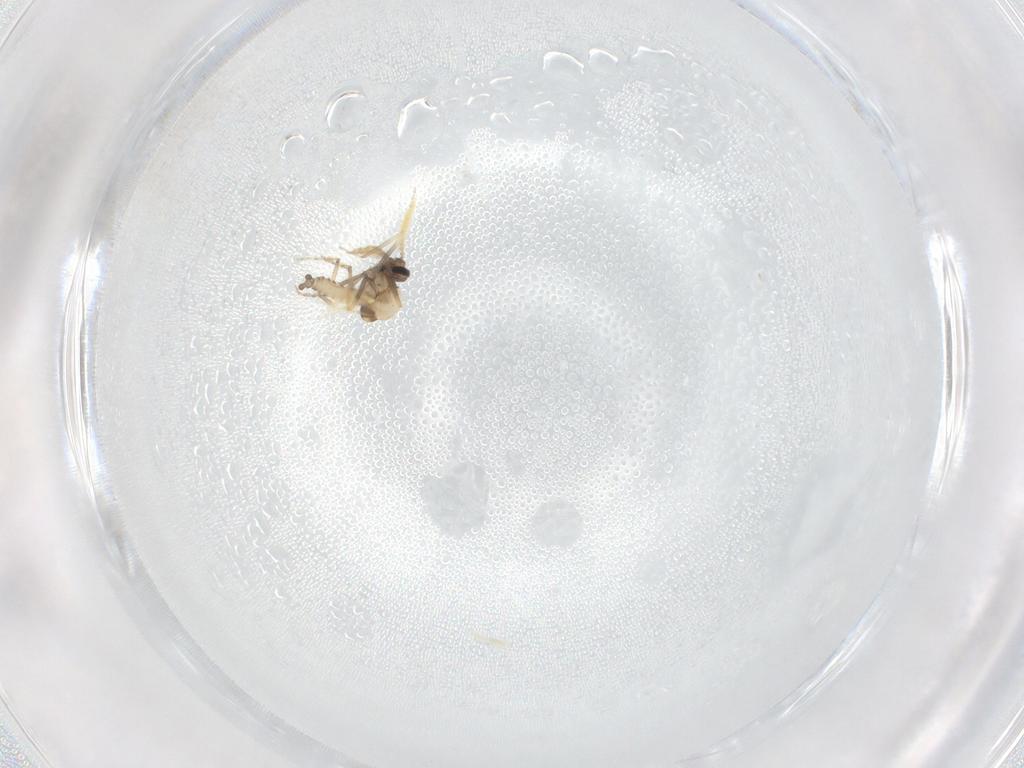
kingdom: Animalia
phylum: Arthropoda
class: Insecta
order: Diptera
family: Ceratopogonidae
